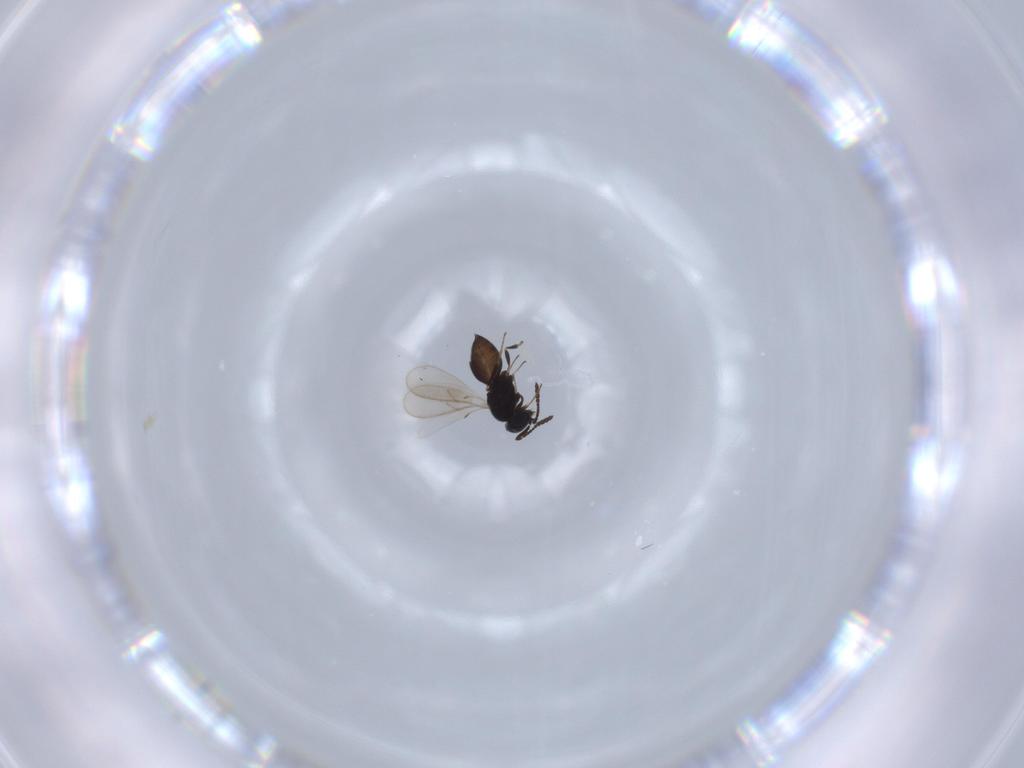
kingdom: Animalia
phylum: Arthropoda
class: Insecta
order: Hymenoptera
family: Scelionidae
